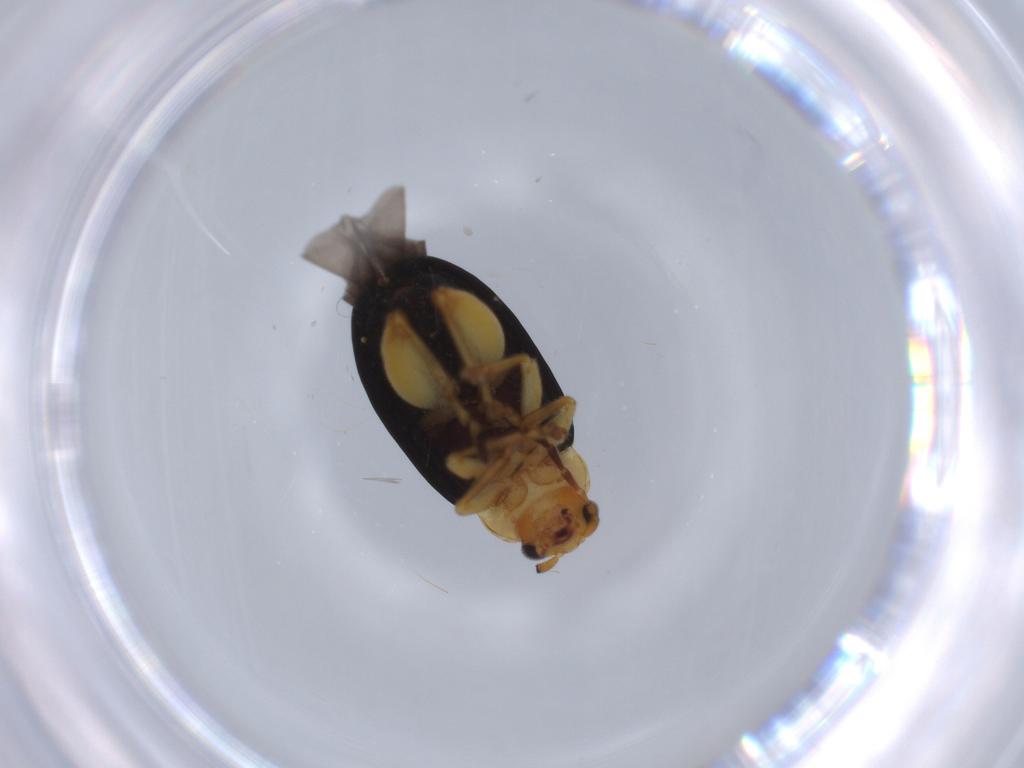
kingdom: Animalia
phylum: Arthropoda
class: Insecta
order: Coleoptera
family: Chrysomelidae
